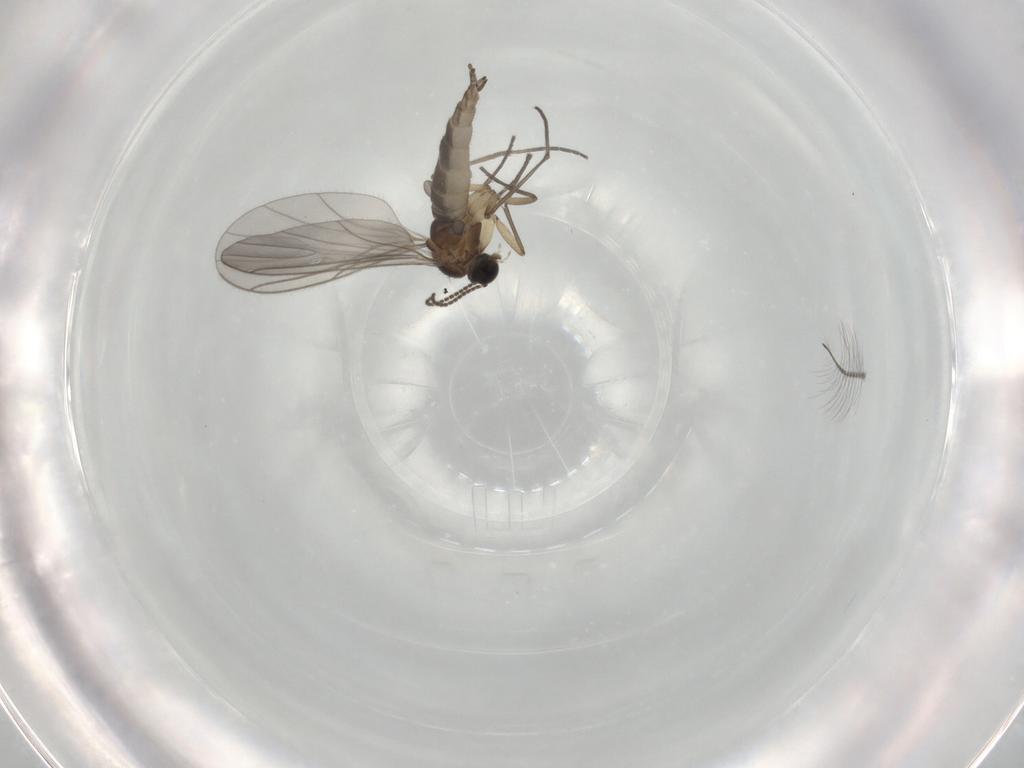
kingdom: Animalia
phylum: Arthropoda
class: Insecta
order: Diptera
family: Sciaridae
